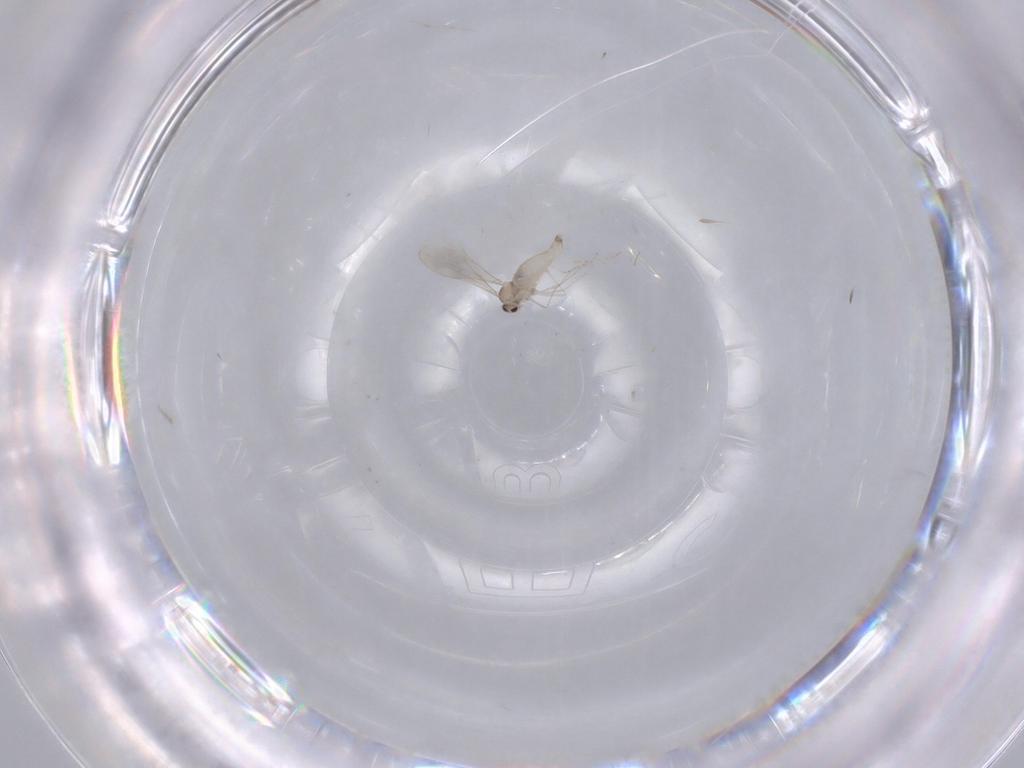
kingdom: Animalia
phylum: Arthropoda
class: Insecta
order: Diptera
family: Cecidomyiidae
